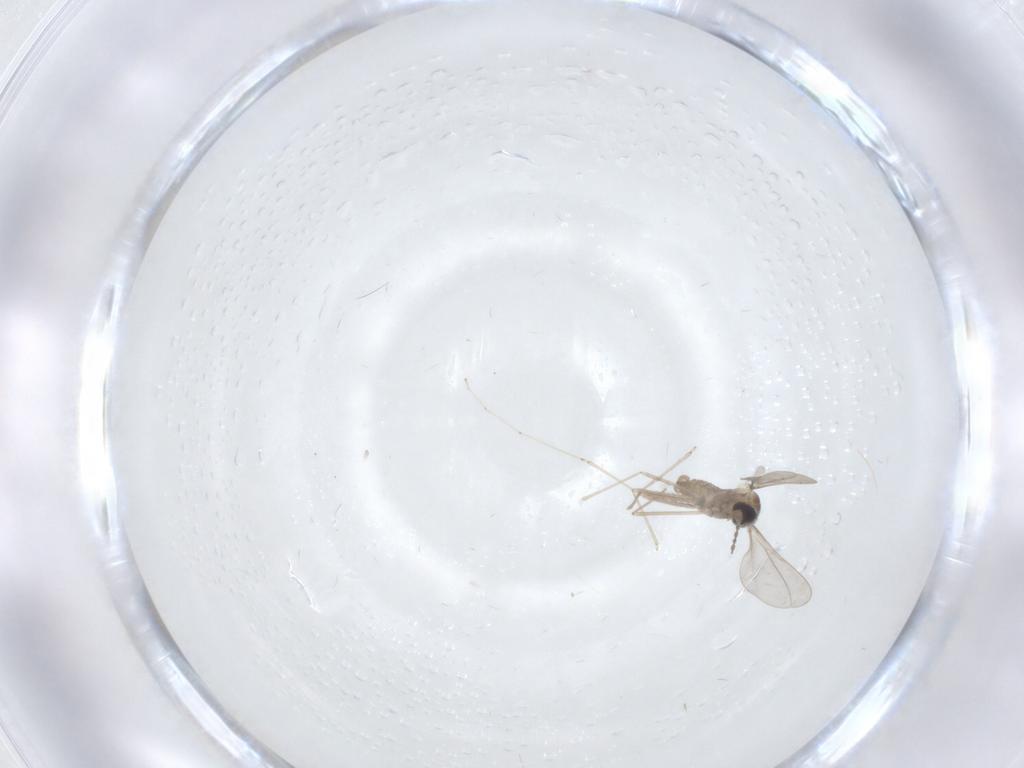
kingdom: Animalia
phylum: Arthropoda
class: Insecta
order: Diptera
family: Cecidomyiidae
